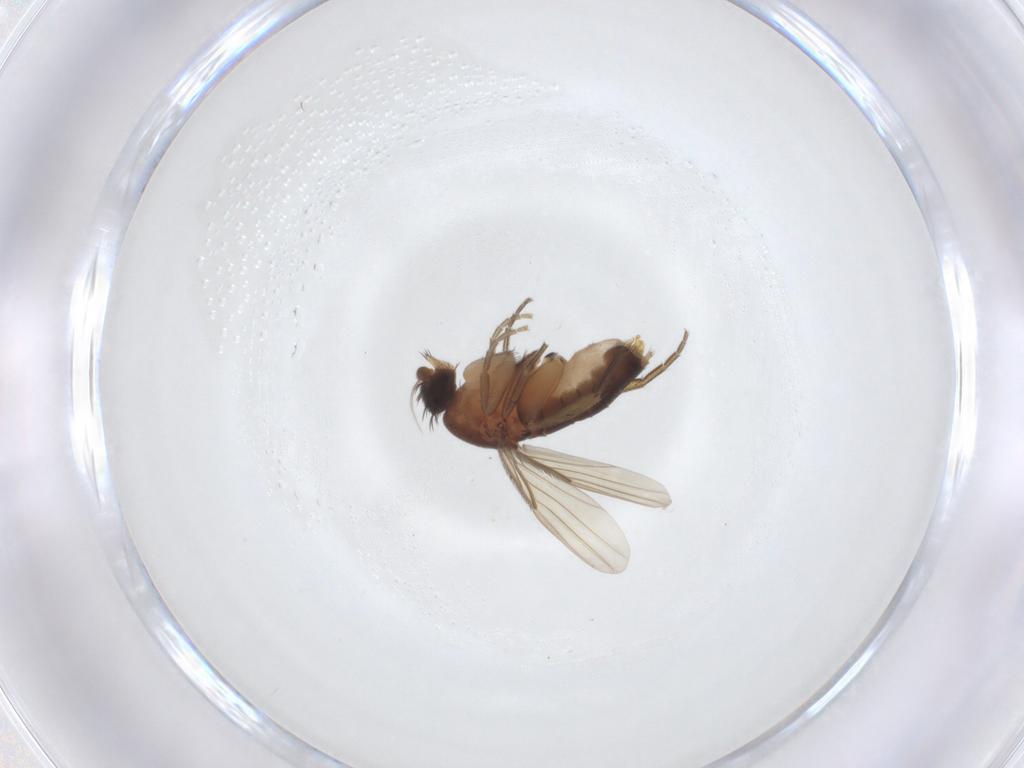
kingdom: Animalia
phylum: Arthropoda
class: Insecta
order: Diptera
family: Phoridae
